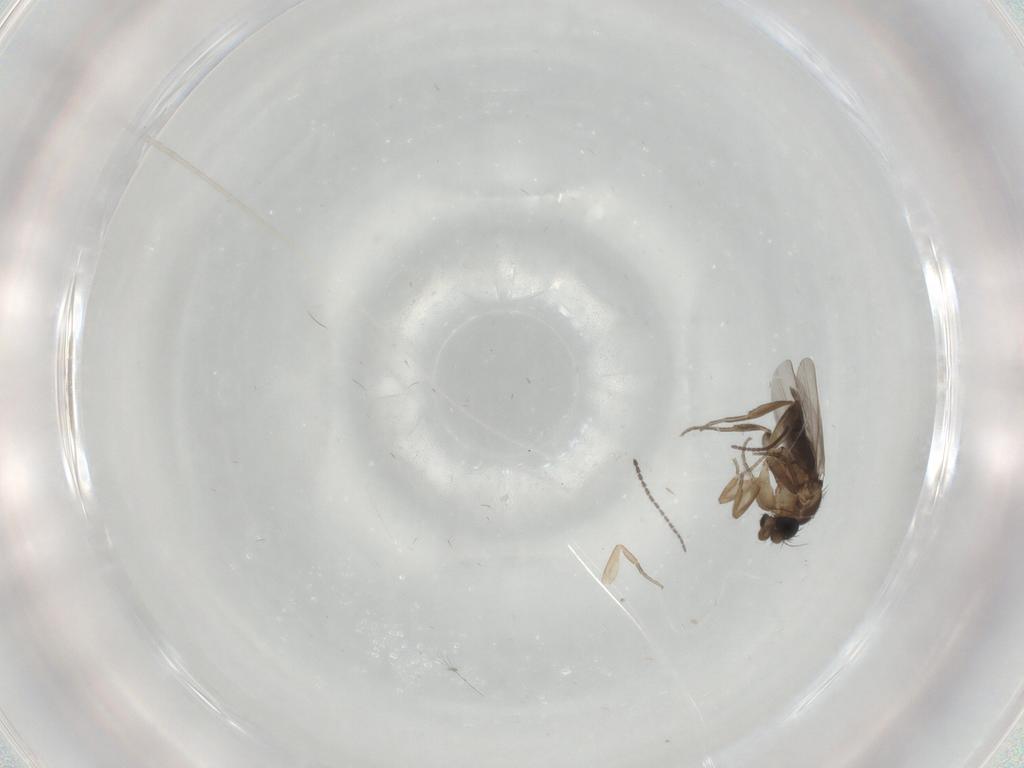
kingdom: Animalia
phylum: Arthropoda
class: Insecta
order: Diptera
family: Phoridae
